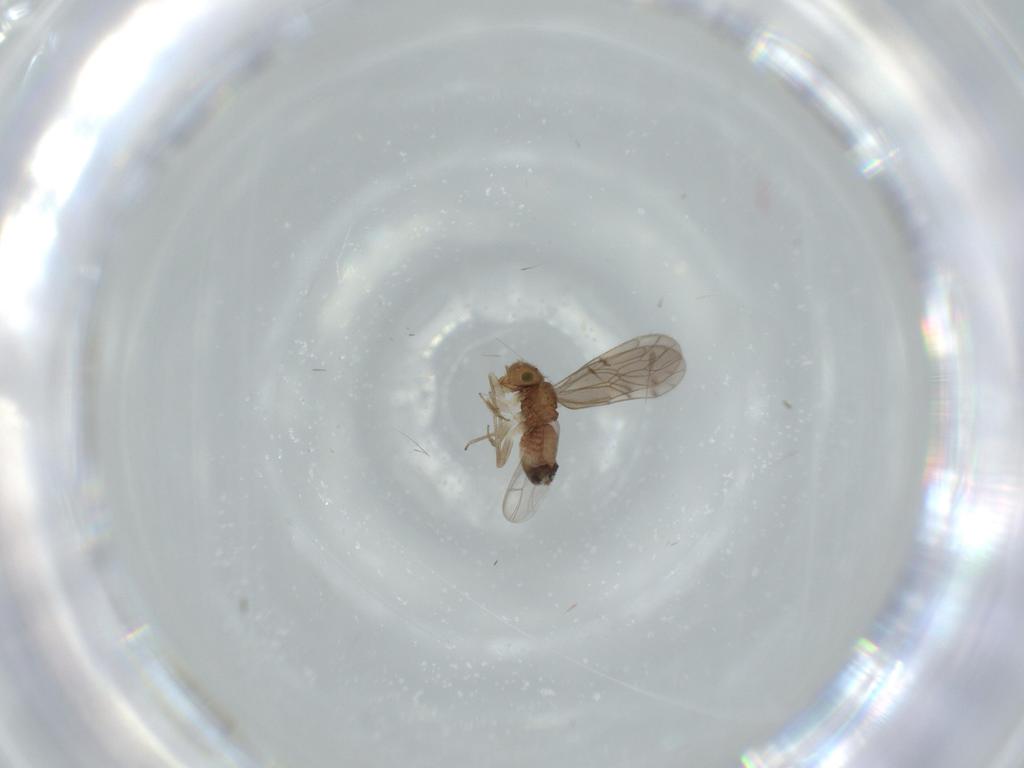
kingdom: Animalia
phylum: Arthropoda
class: Insecta
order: Psocodea
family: Ectopsocidae
